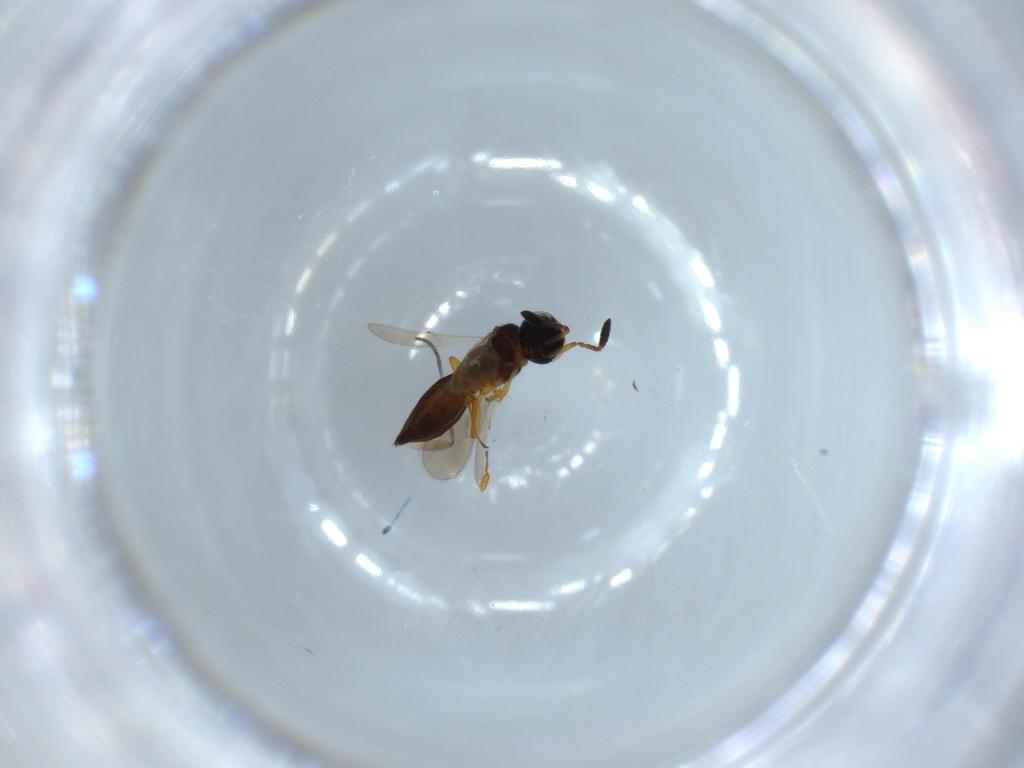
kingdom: Animalia
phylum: Arthropoda
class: Insecta
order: Diptera
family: Sciaridae
